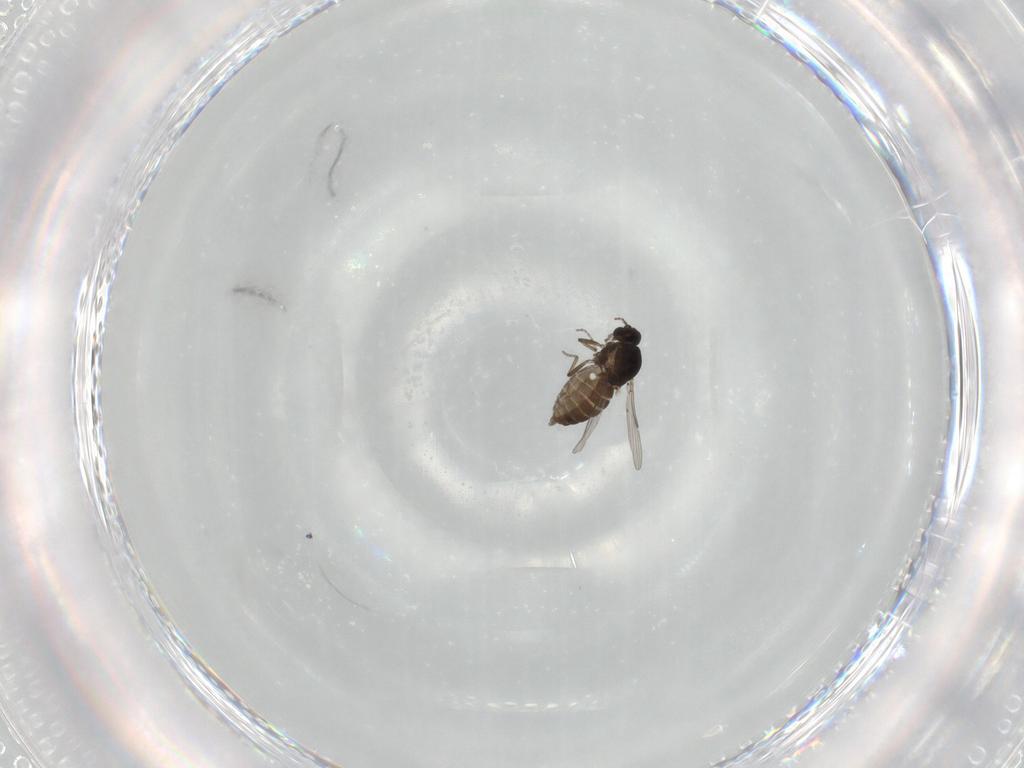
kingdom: Animalia
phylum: Arthropoda
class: Insecta
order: Diptera
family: Ceratopogonidae
